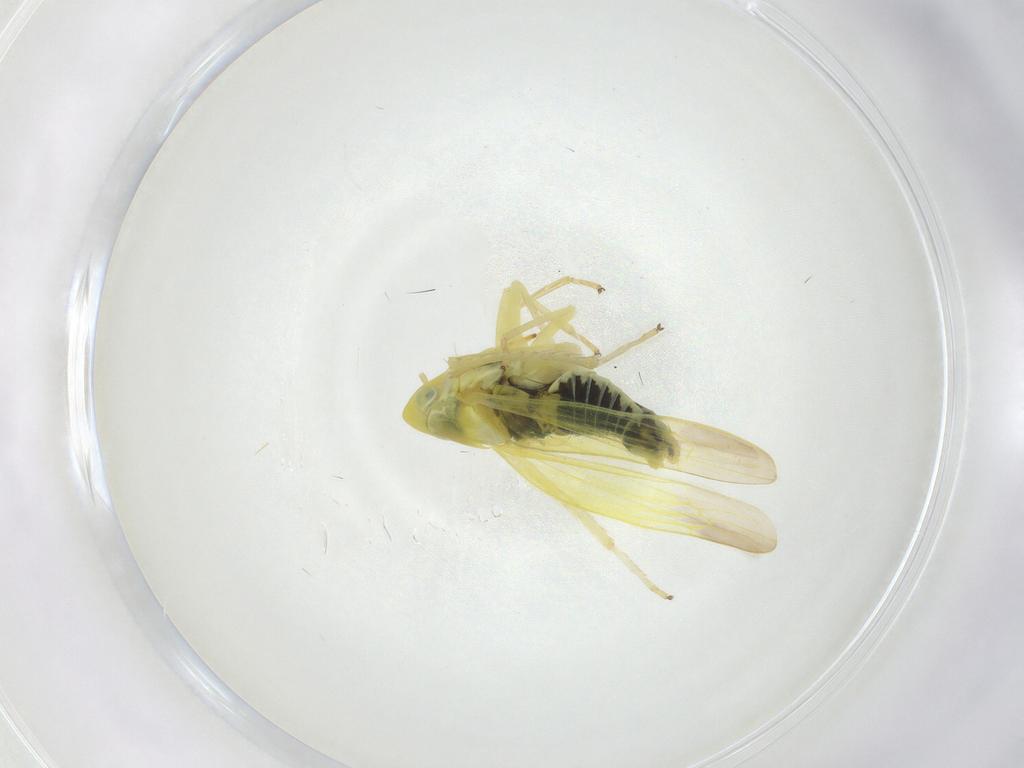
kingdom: Animalia
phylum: Arthropoda
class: Insecta
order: Hemiptera
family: Cicadellidae
